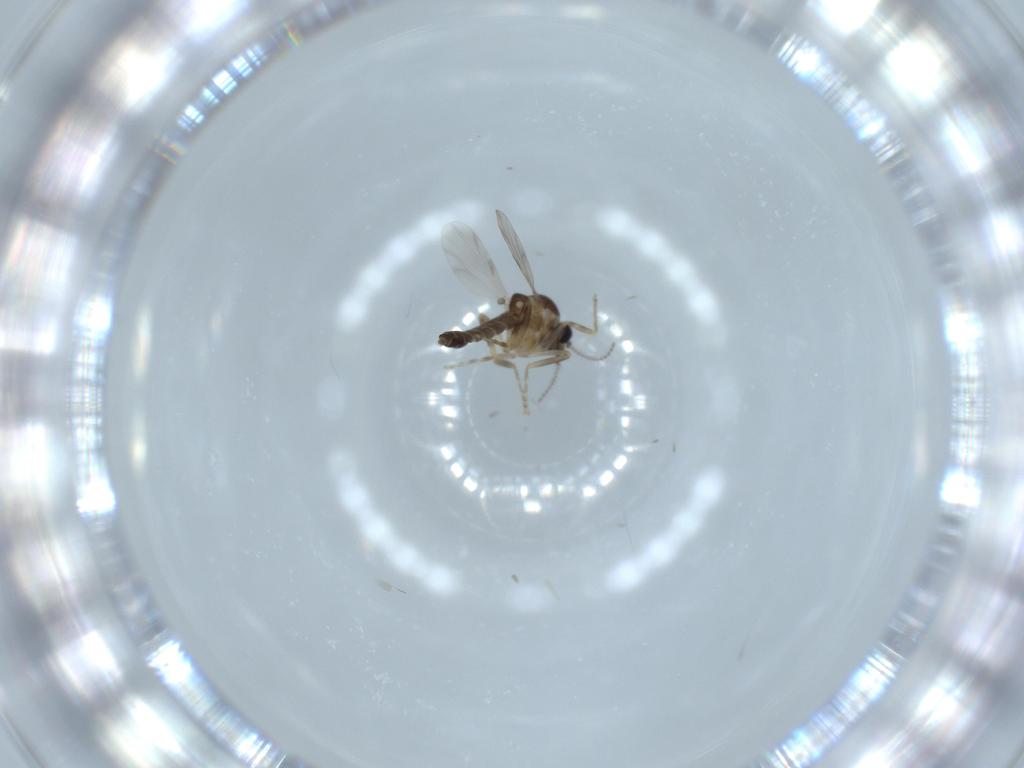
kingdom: Animalia
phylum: Arthropoda
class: Insecta
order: Diptera
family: Ceratopogonidae
